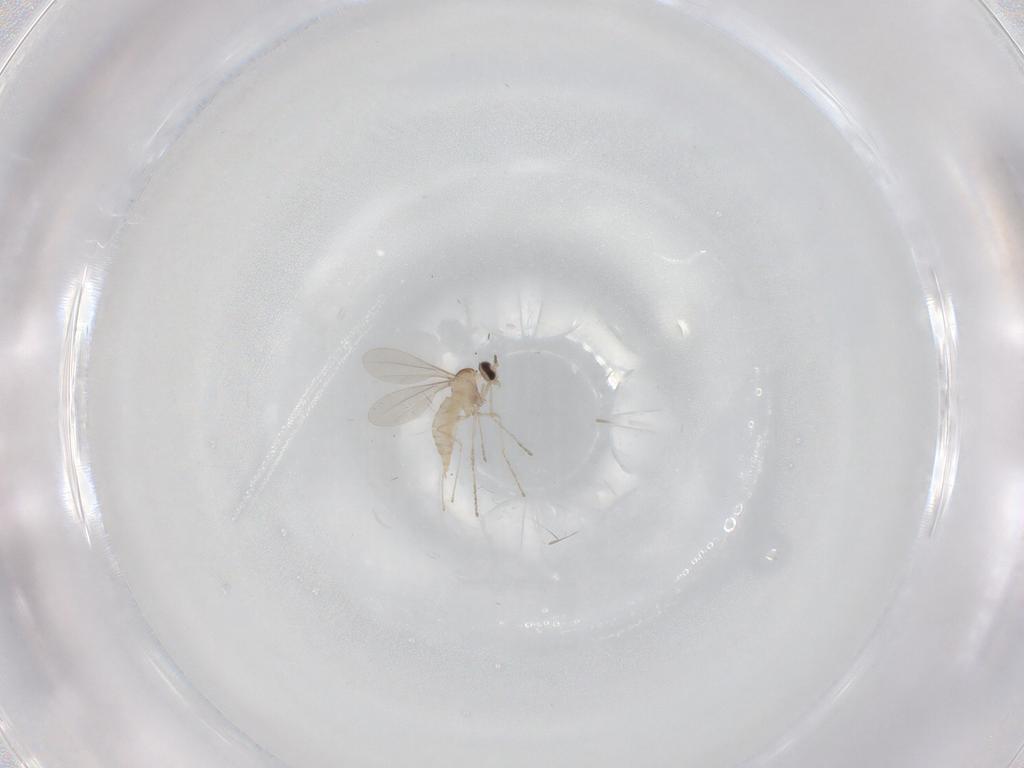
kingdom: Animalia
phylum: Arthropoda
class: Insecta
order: Diptera
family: Cecidomyiidae
